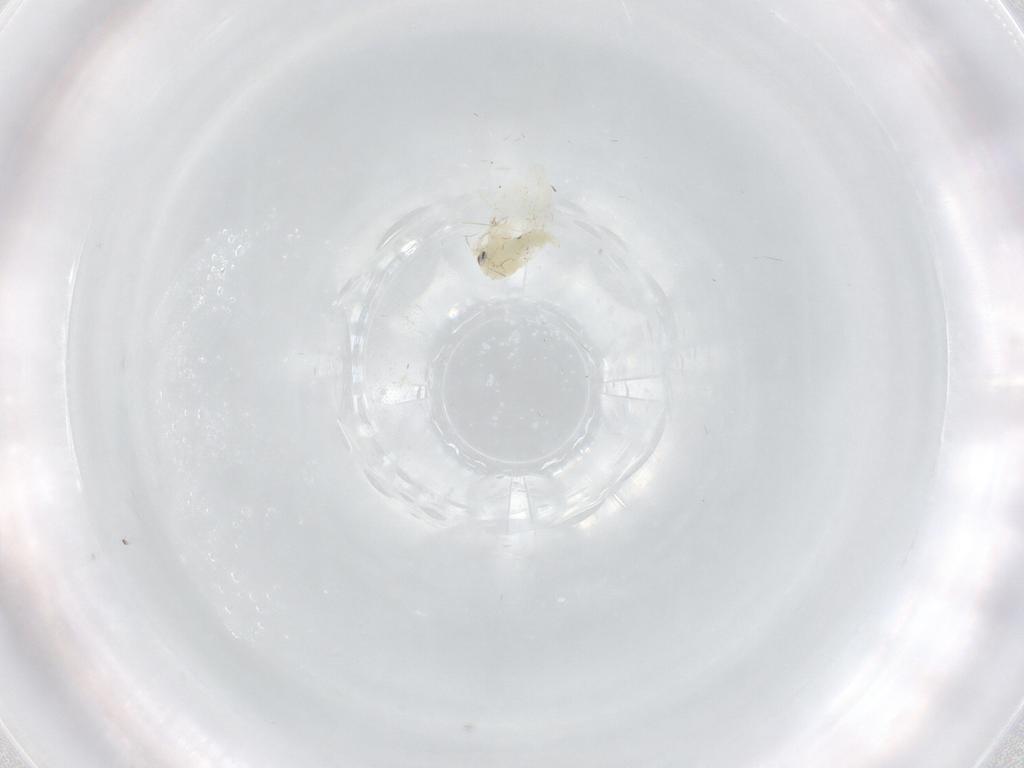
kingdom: Animalia
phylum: Arthropoda
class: Insecta
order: Hemiptera
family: Aleyrodidae
